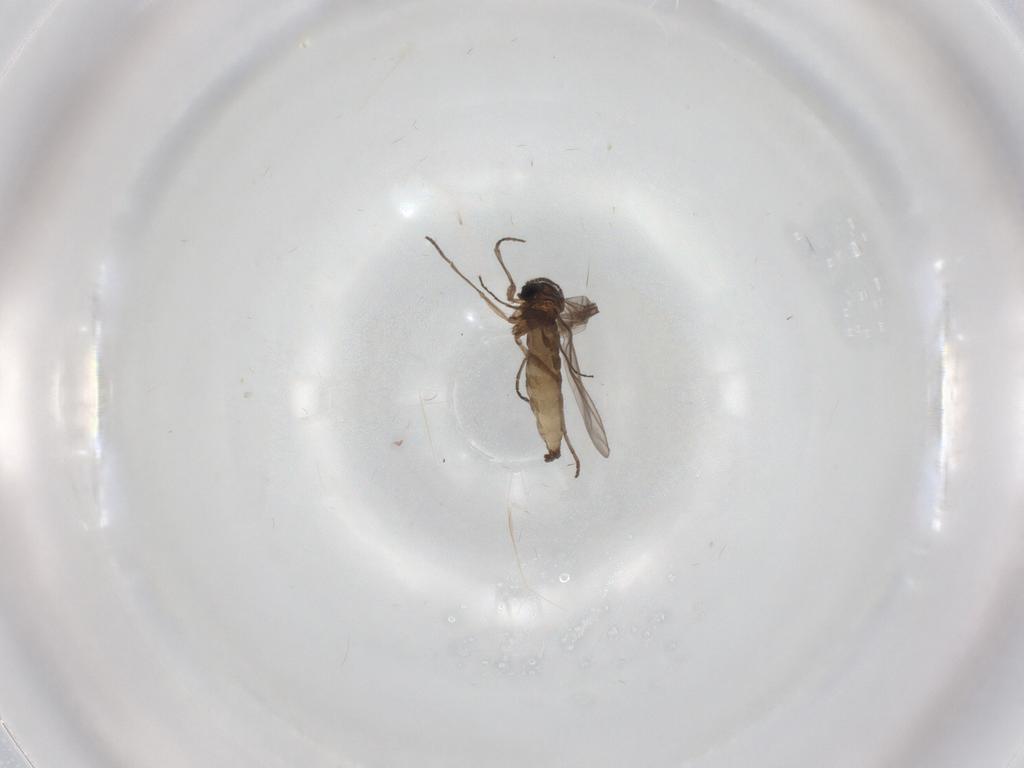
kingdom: Animalia
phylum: Arthropoda
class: Insecta
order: Diptera
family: Sciaridae
